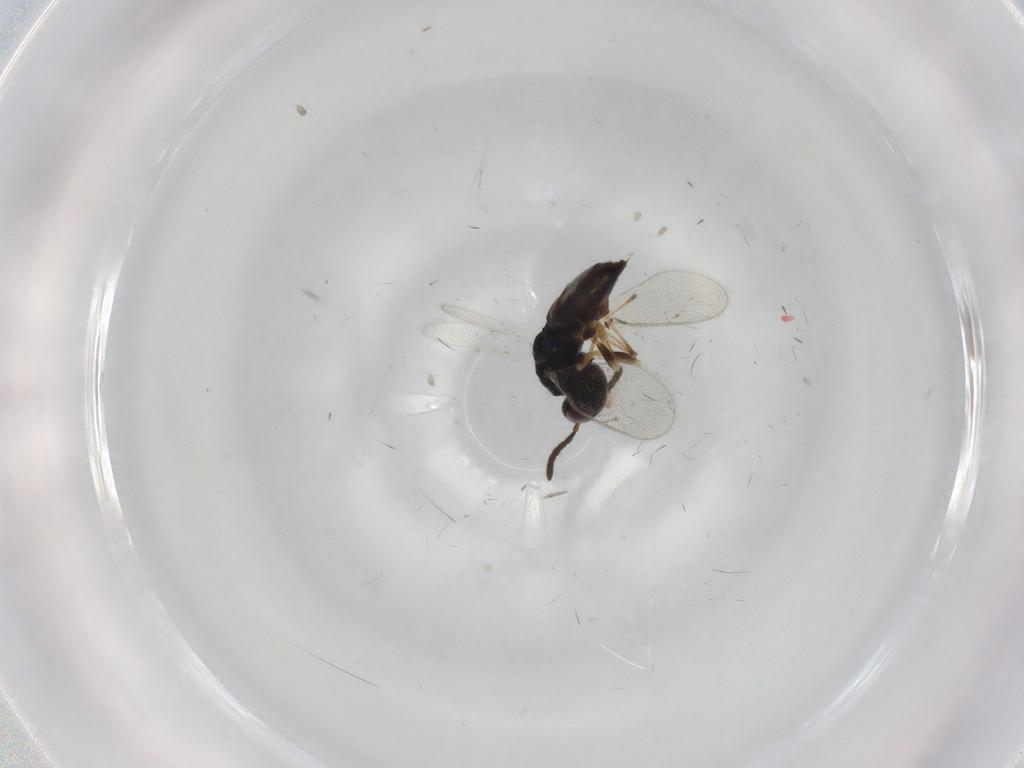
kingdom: Animalia
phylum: Arthropoda
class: Insecta
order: Hymenoptera
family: Pteromalidae
